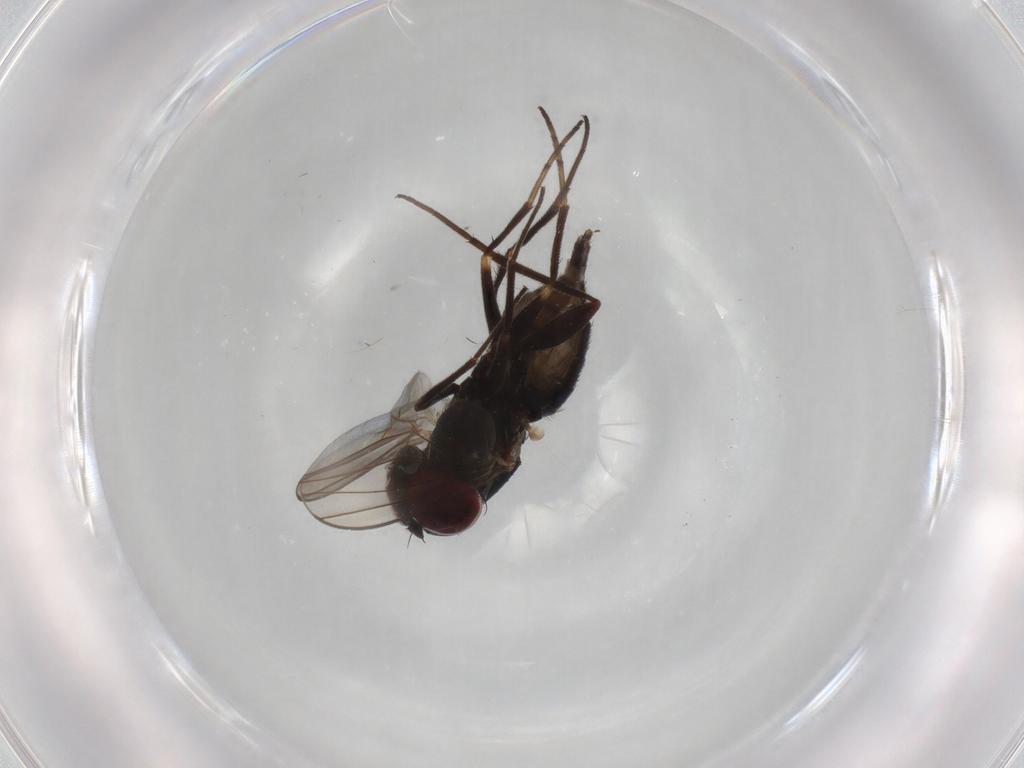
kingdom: Animalia
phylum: Arthropoda
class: Insecta
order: Diptera
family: Dolichopodidae
